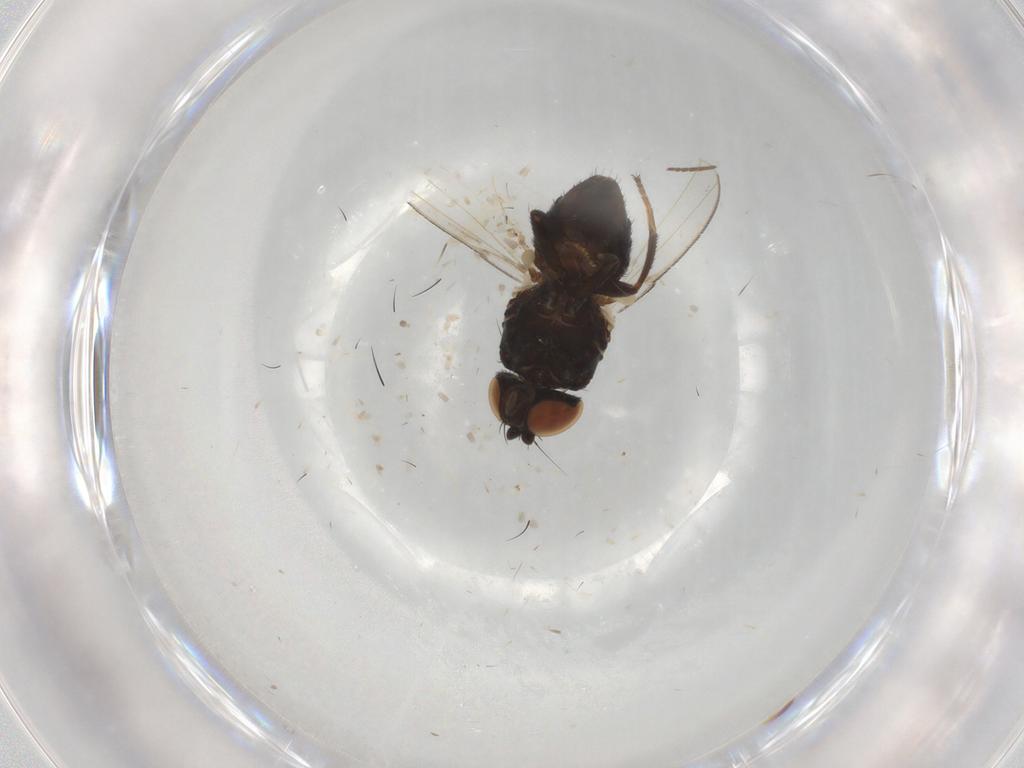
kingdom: Animalia
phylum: Arthropoda
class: Insecta
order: Diptera
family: Milichiidae
